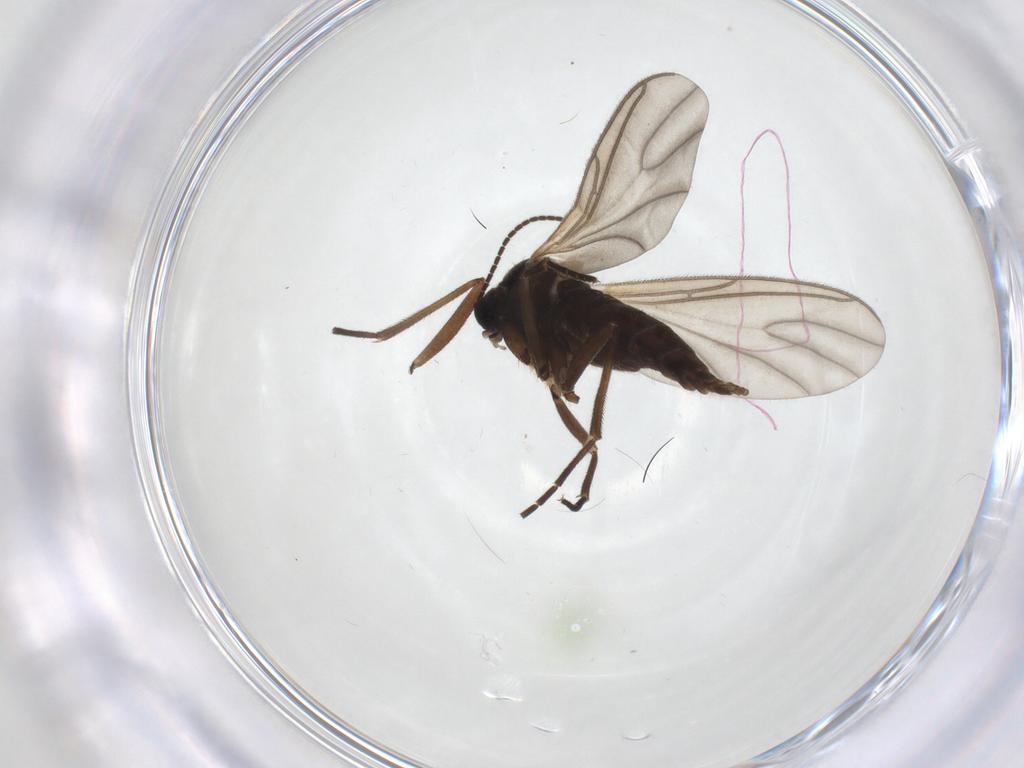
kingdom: Animalia
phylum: Arthropoda
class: Insecta
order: Diptera
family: Sciaridae
